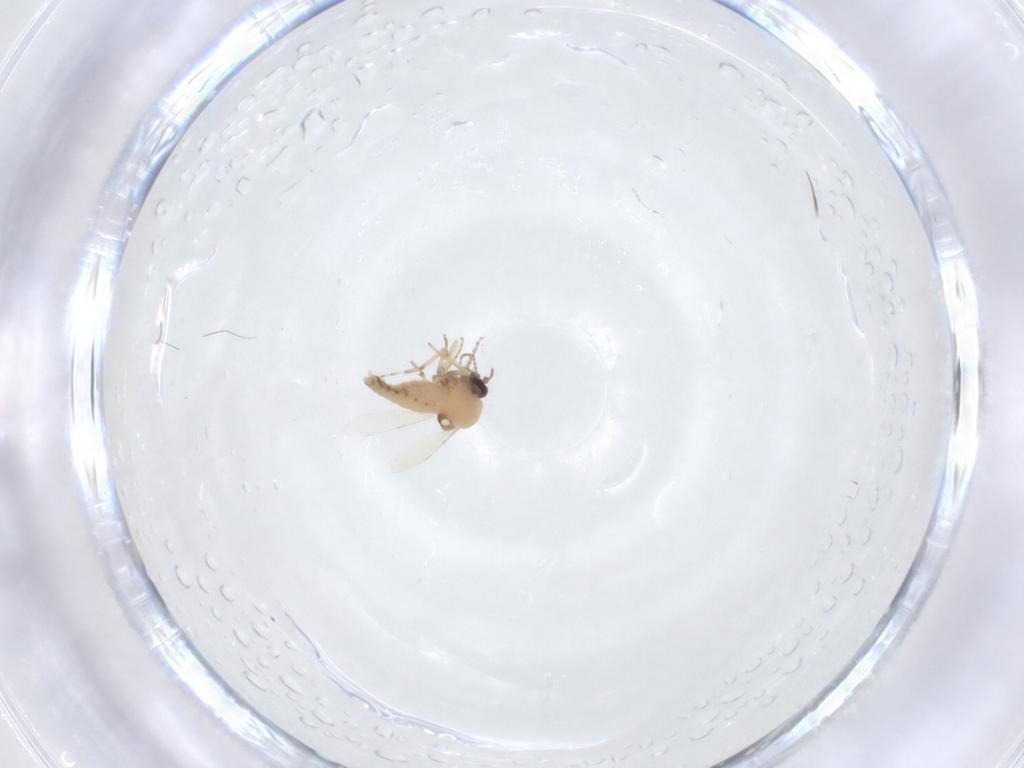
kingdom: Animalia
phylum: Arthropoda
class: Insecta
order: Diptera
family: Ceratopogonidae
